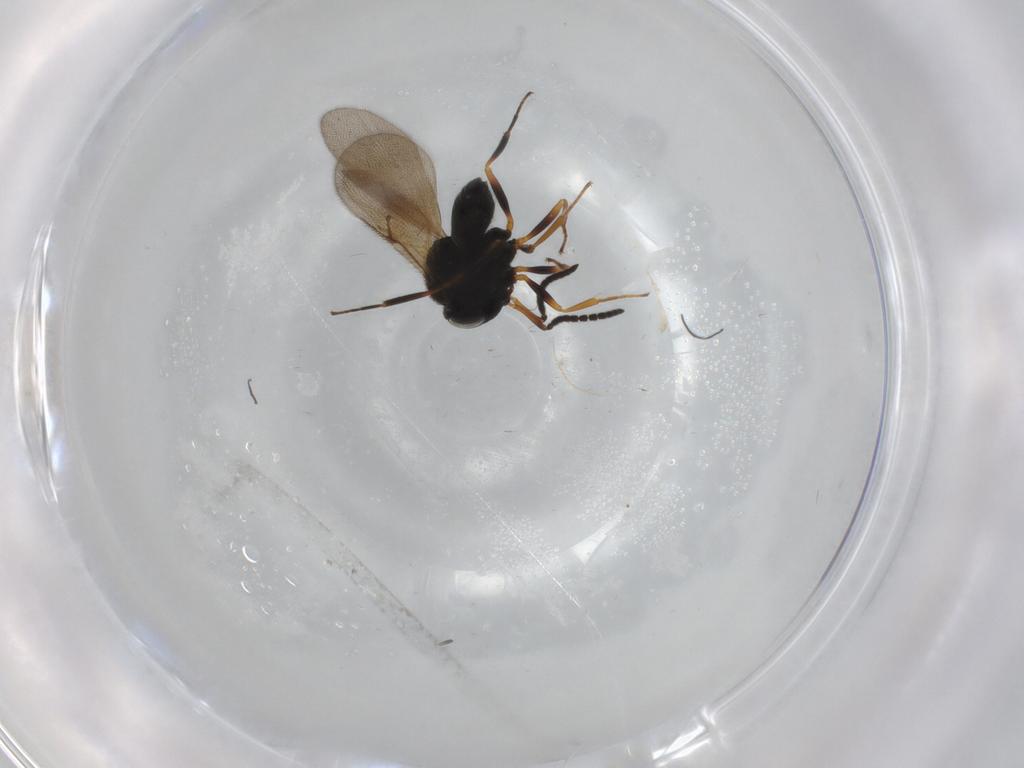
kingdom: Animalia
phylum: Arthropoda
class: Insecta
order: Hymenoptera
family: Scelionidae
